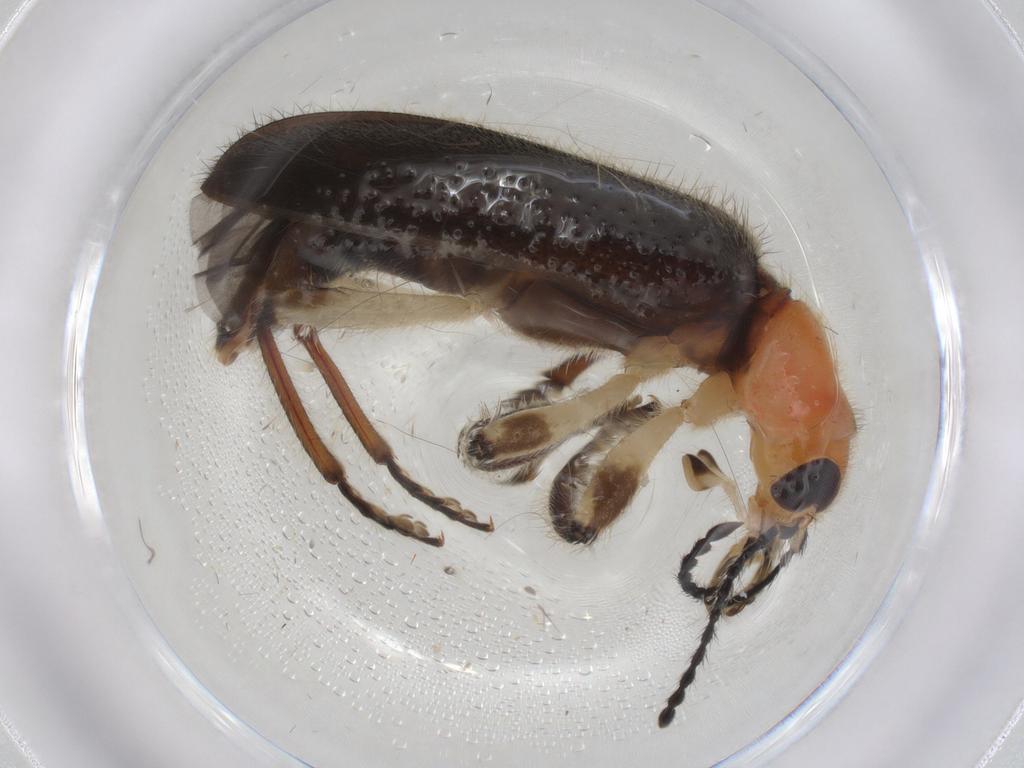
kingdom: Animalia
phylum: Arthropoda
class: Insecta
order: Coleoptera
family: Cleridae
